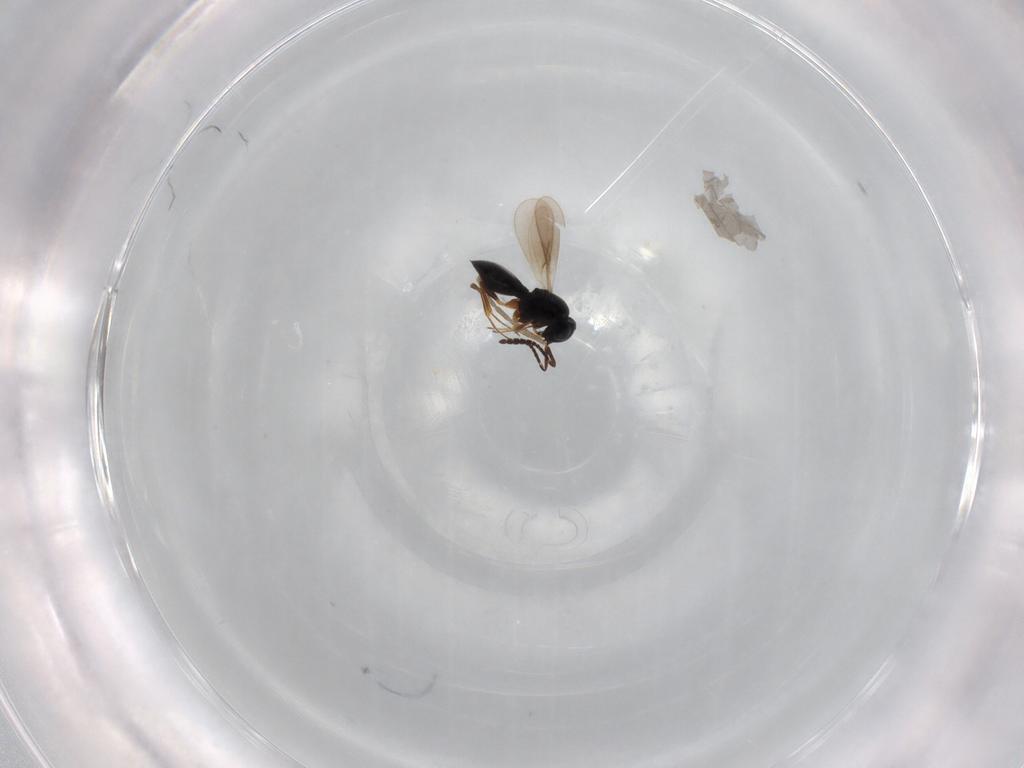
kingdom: Animalia
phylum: Arthropoda
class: Insecta
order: Hymenoptera
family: Scelionidae
